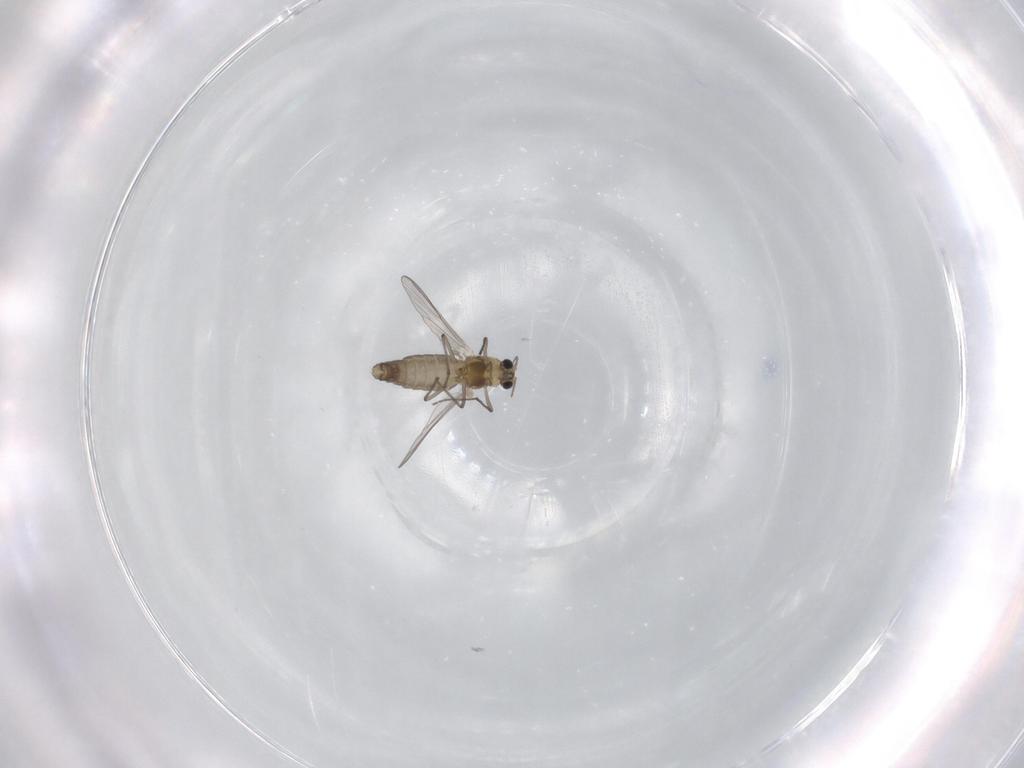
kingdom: Animalia
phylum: Arthropoda
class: Insecta
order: Diptera
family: Chironomidae
